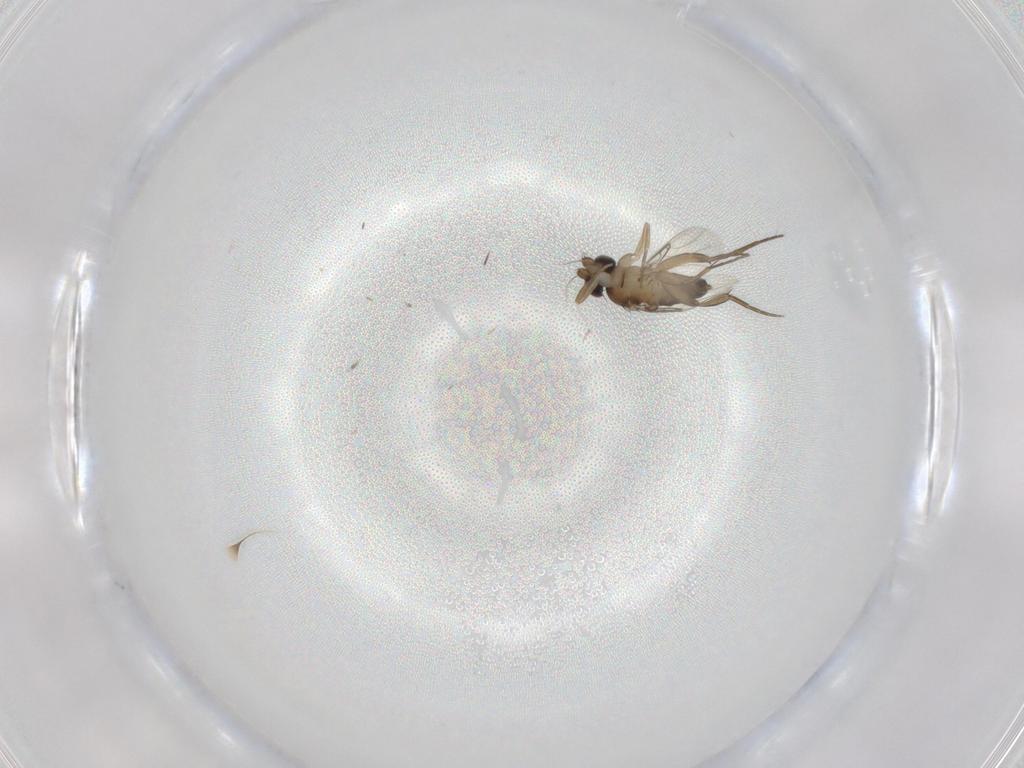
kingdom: Animalia
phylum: Arthropoda
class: Insecta
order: Diptera
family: Phoridae
